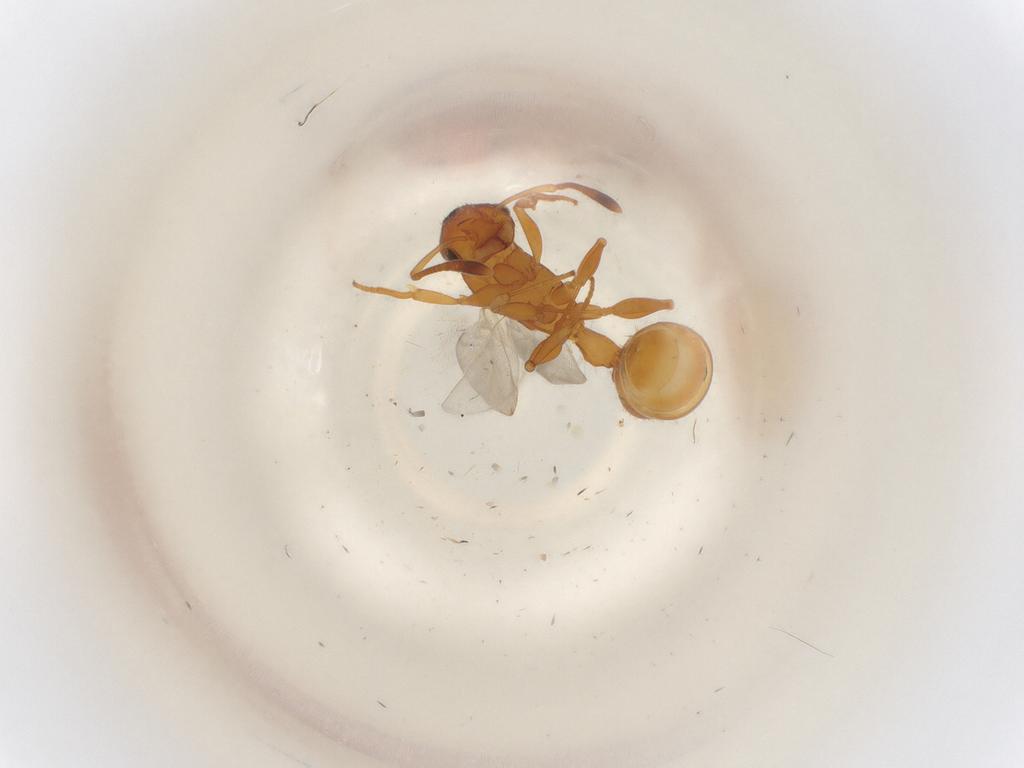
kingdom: Animalia
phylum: Arthropoda
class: Insecta
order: Hymenoptera
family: Formicidae
